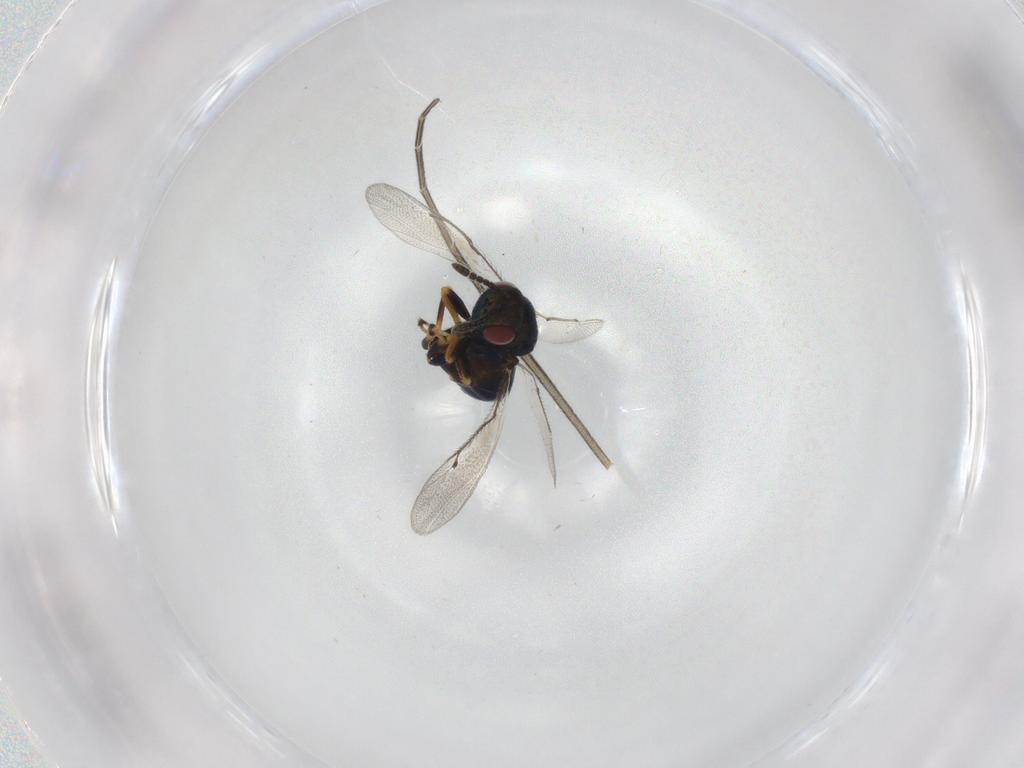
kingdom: Animalia
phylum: Arthropoda
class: Insecta
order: Hymenoptera
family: Eulophidae
